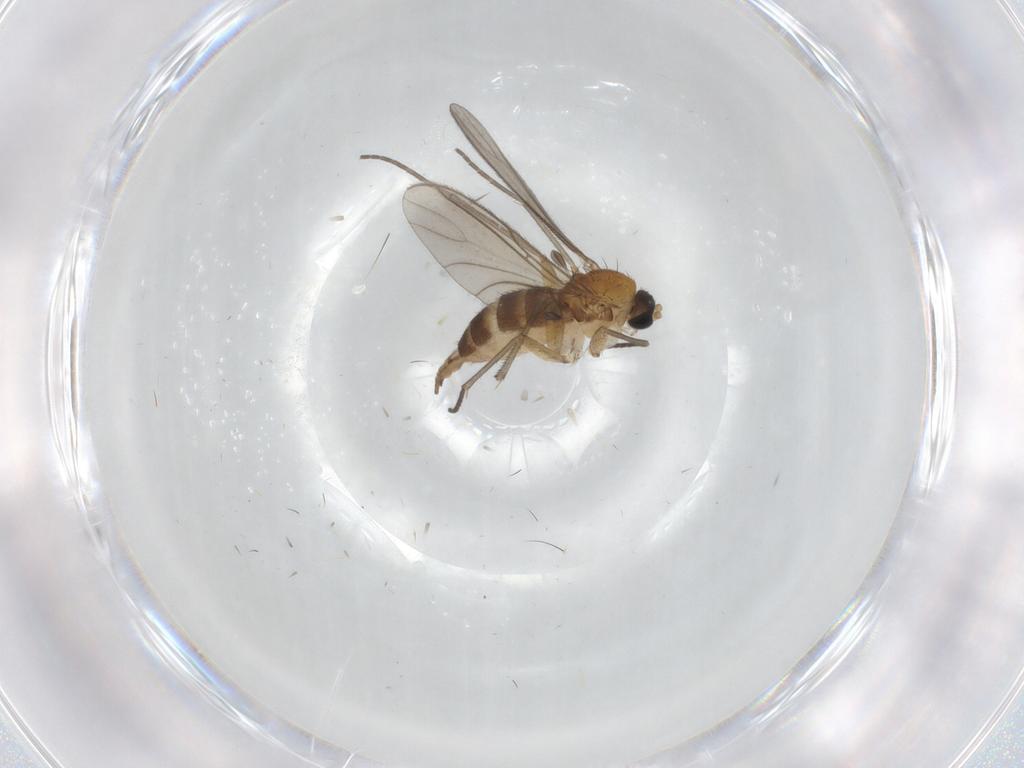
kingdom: Animalia
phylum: Arthropoda
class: Insecta
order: Diptera
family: Sciaridae
